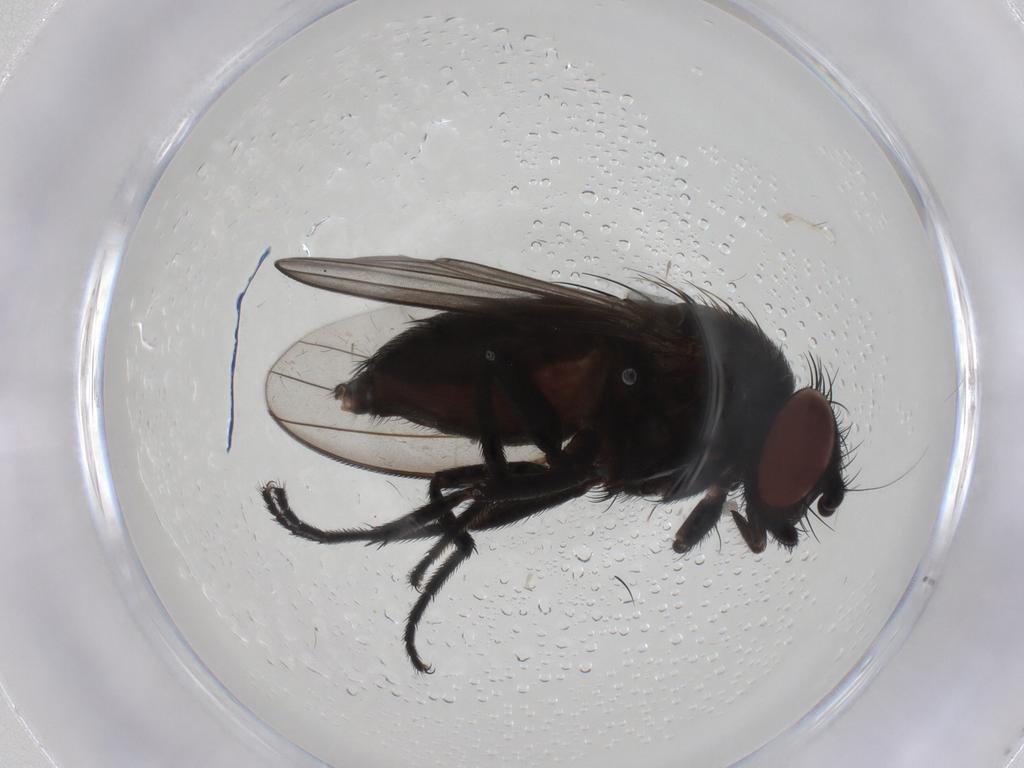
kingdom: Animalia
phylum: Arthropoda
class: Insecta
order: Diptera
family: Milichiidae
